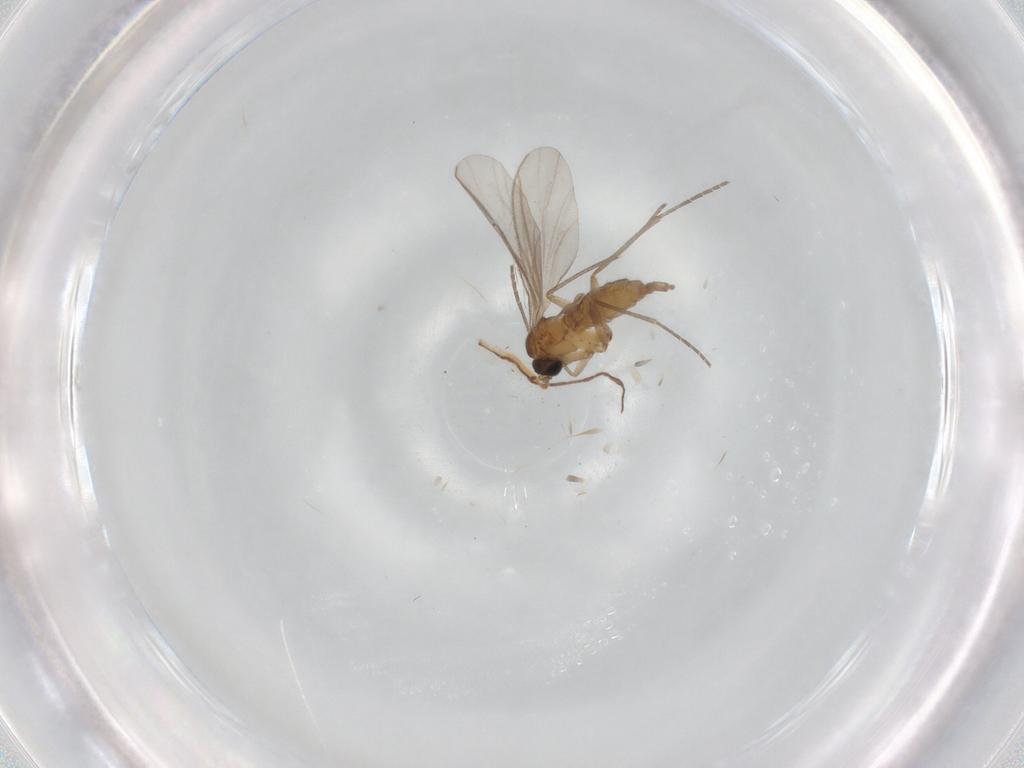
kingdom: Animalia
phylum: Arthropoda
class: Insecta
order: Diptera
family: Sciaridae
